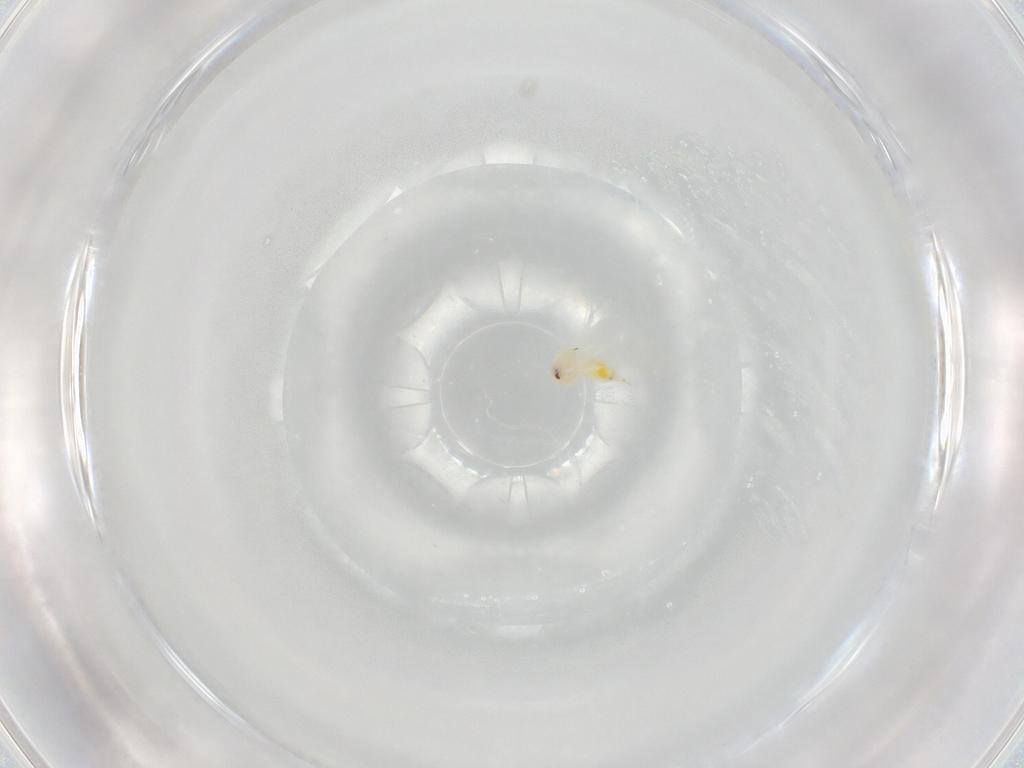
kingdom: Animalia
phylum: Arthropoda
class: Insecta
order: Hemiptera
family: Aleyrodidae
